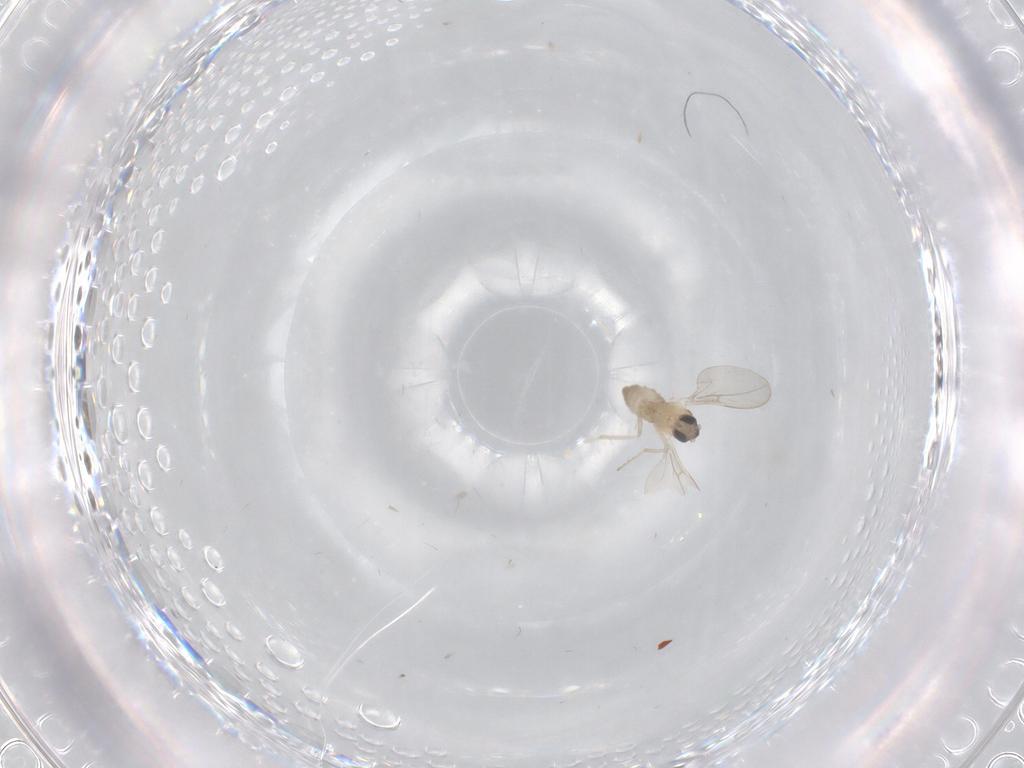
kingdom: Animalia
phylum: Arthropoda
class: Insecta
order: Diptera
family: Cecidomyiidae
